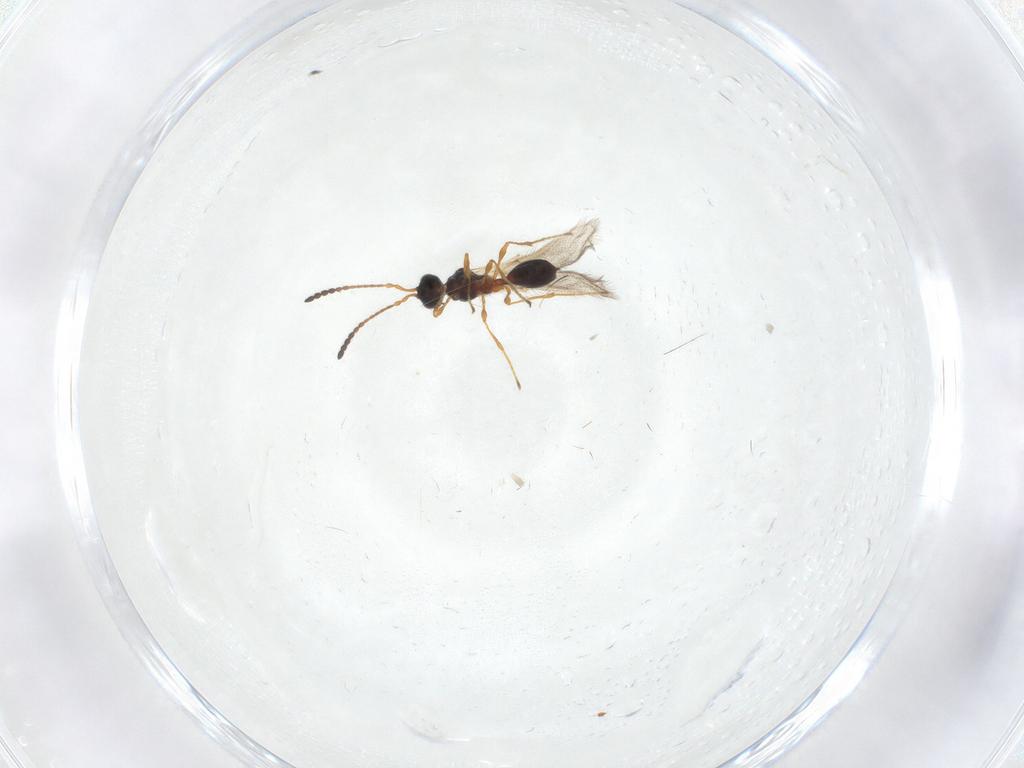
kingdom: Animalia
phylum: Arthropoda
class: Insecta
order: Hymenoptera
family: Diapriidae
